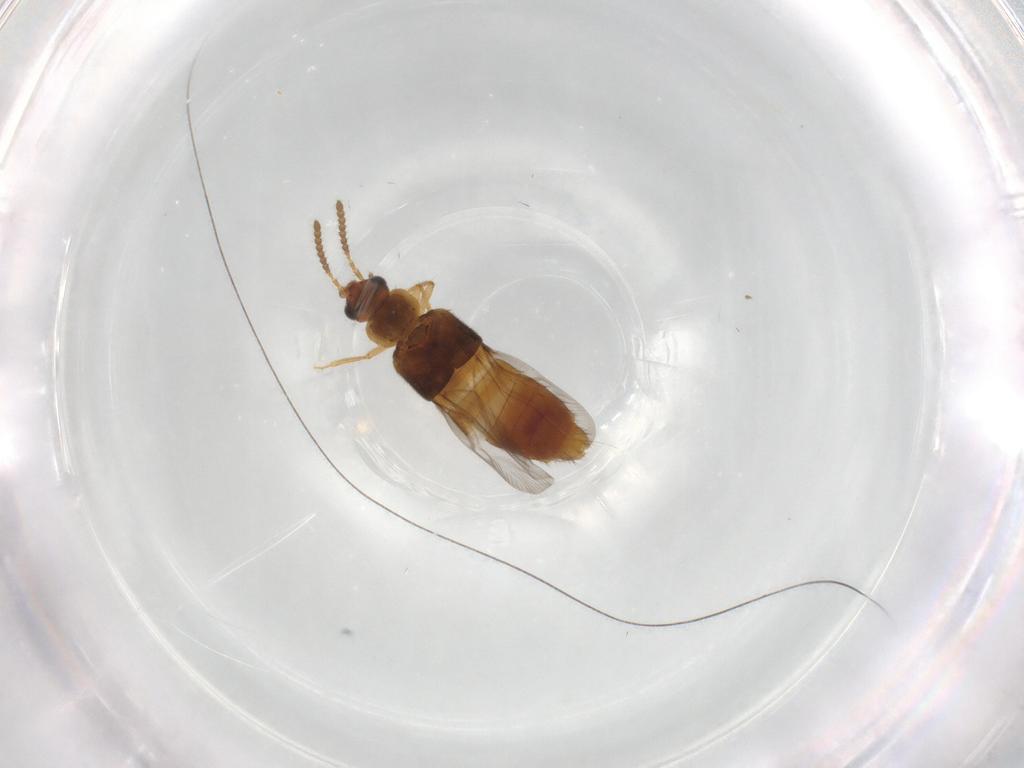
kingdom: Animalia
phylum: Arthropoda
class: Insecta
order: Coleoptera
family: Staphylinidae
